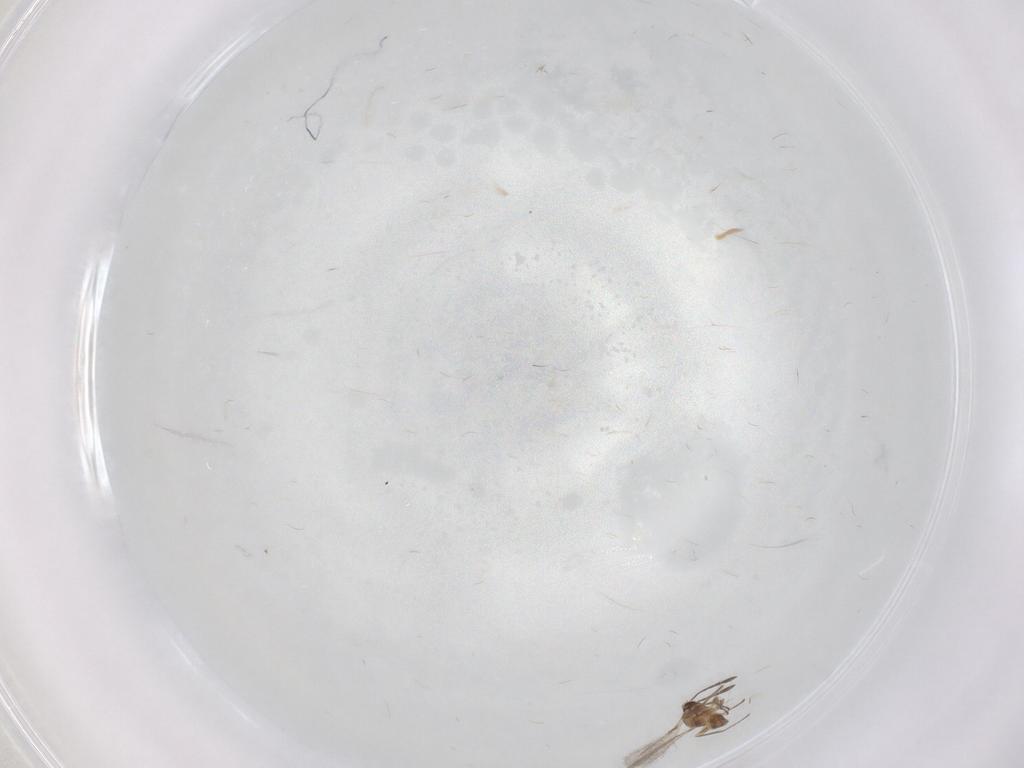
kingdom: Animalia
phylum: Arthropoda
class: Insecta
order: Hymenoptera
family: Mymaridae
